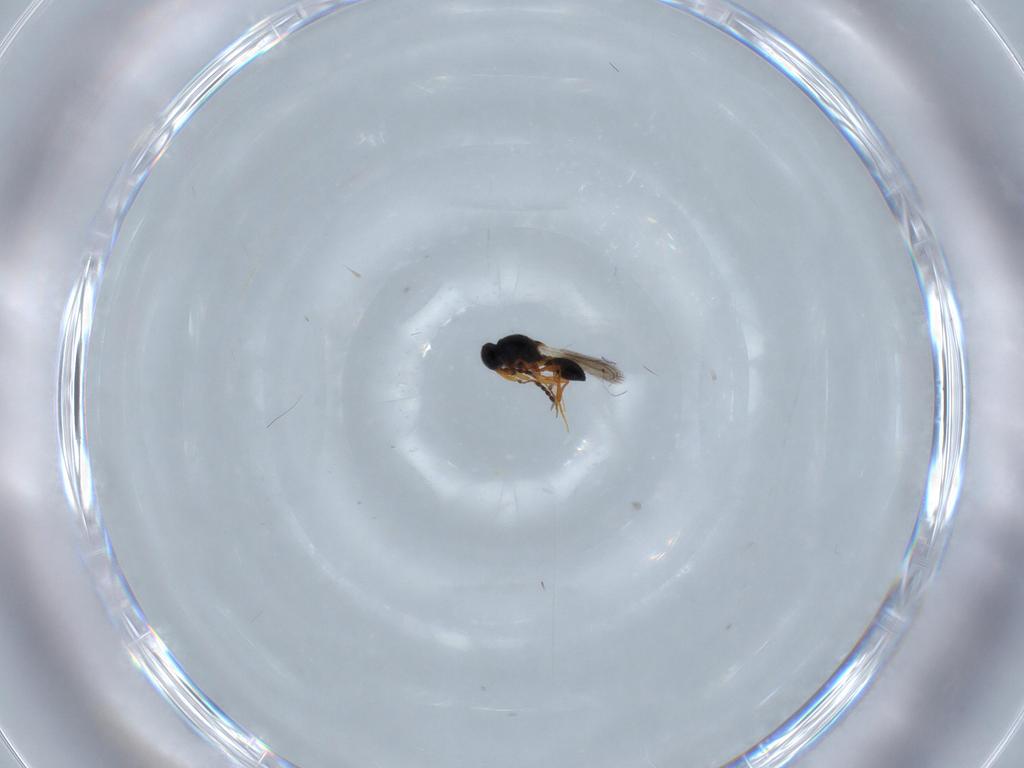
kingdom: Animalia
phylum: Arthropoda
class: Insecta
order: Hymenoptera
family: Platygastridae
